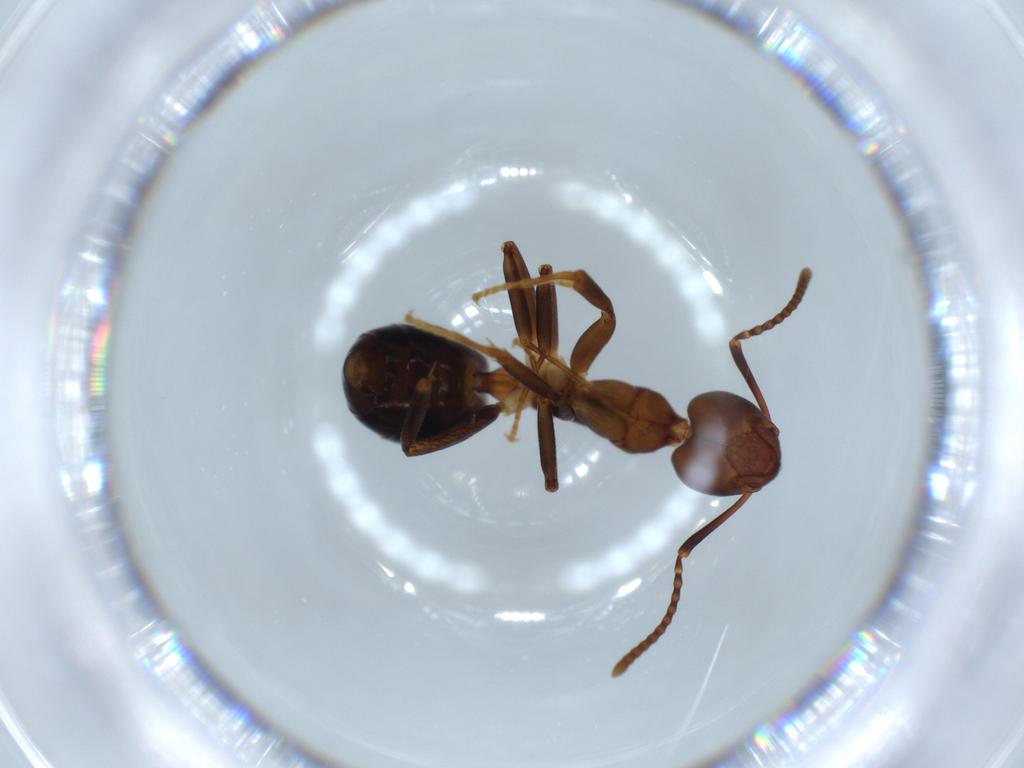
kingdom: Animalia
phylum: Arthropoda
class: Insecta
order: Hymenoptera
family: Formicidae
